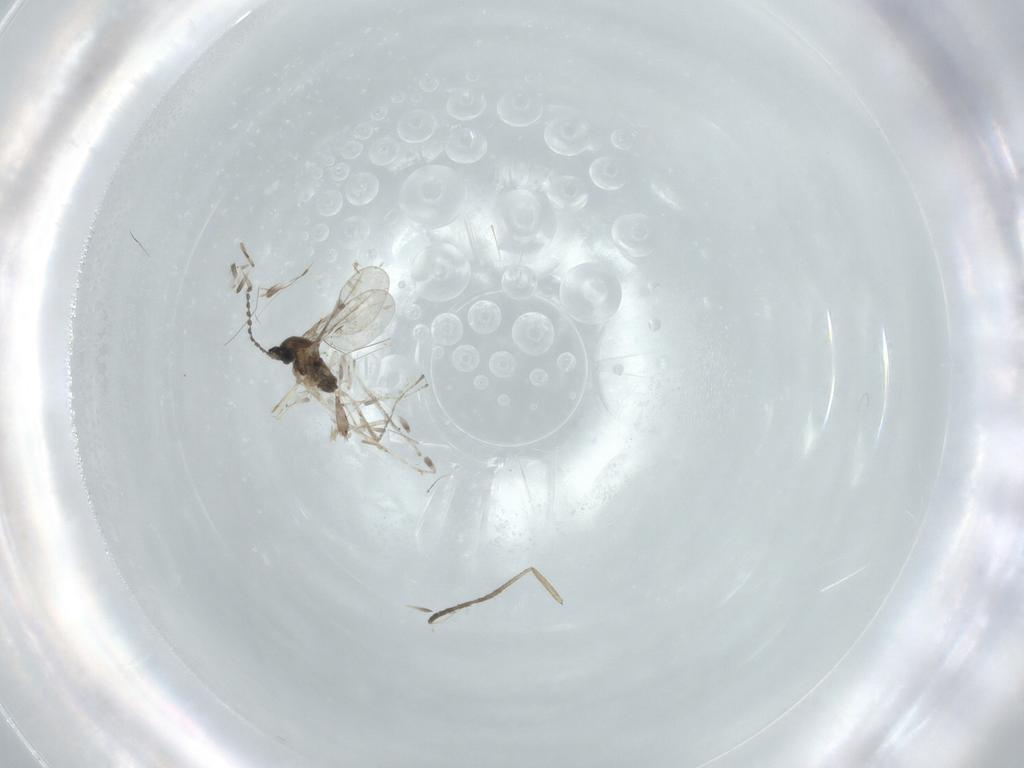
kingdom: Animalia
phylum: Arthropoda
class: Insecta
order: Diptera
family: Cecidomyiidae
